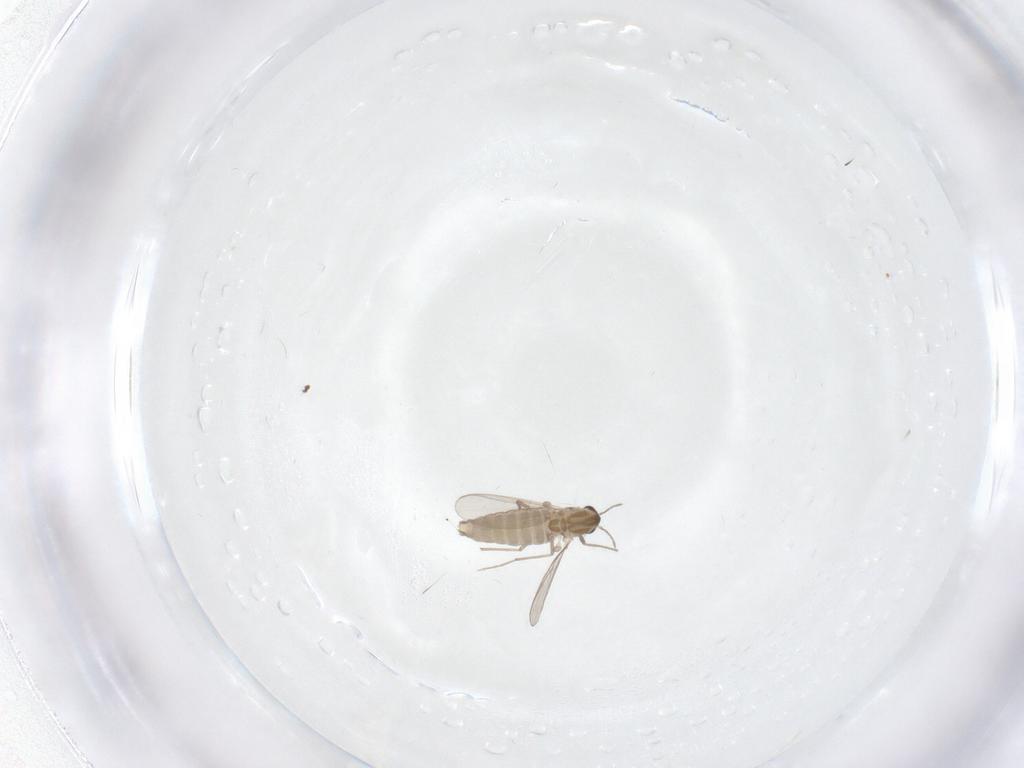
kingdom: Animalia
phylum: Arthropoda
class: Insecta
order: Diptera
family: Chironomidae
